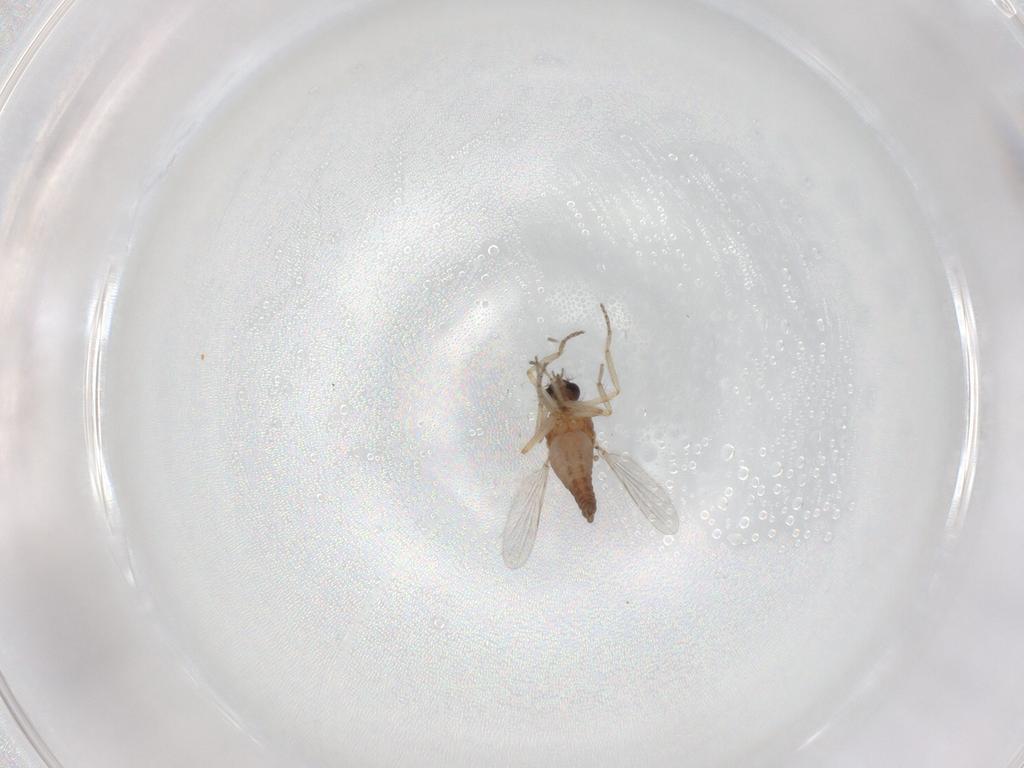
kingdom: Animalia
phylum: Arthropoda
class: Insecta
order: Diptera
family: Ceratopogonidae
